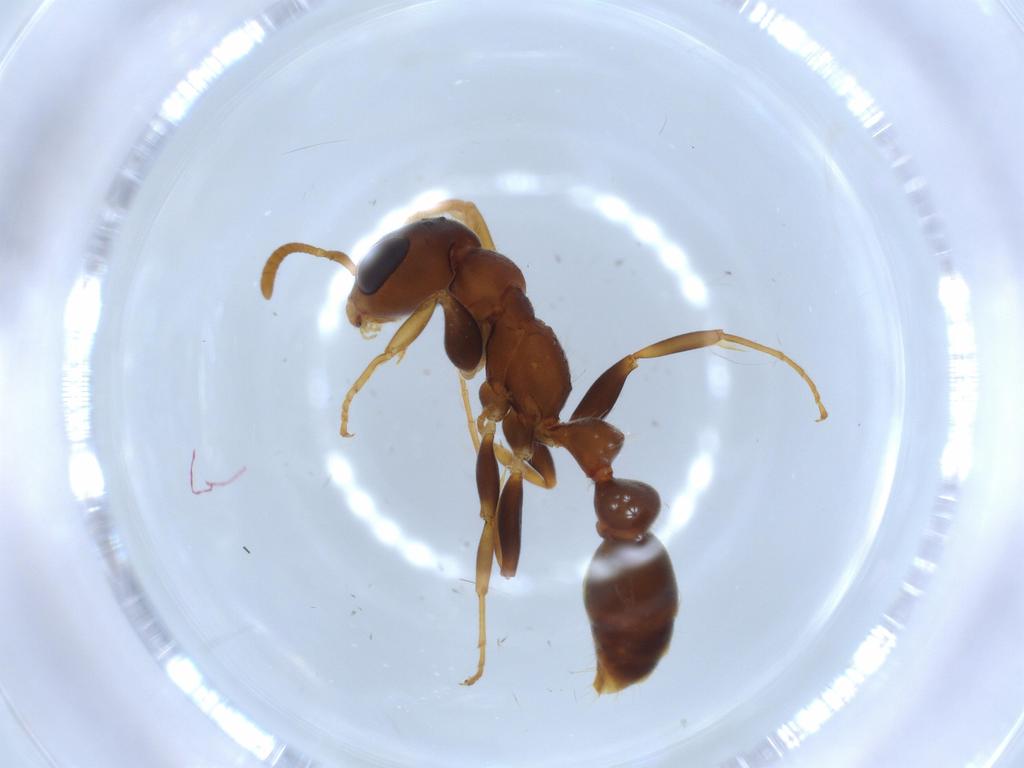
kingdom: Animalia
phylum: Arthropoda
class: Insecta
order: Hymenoptera
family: Formicidae
